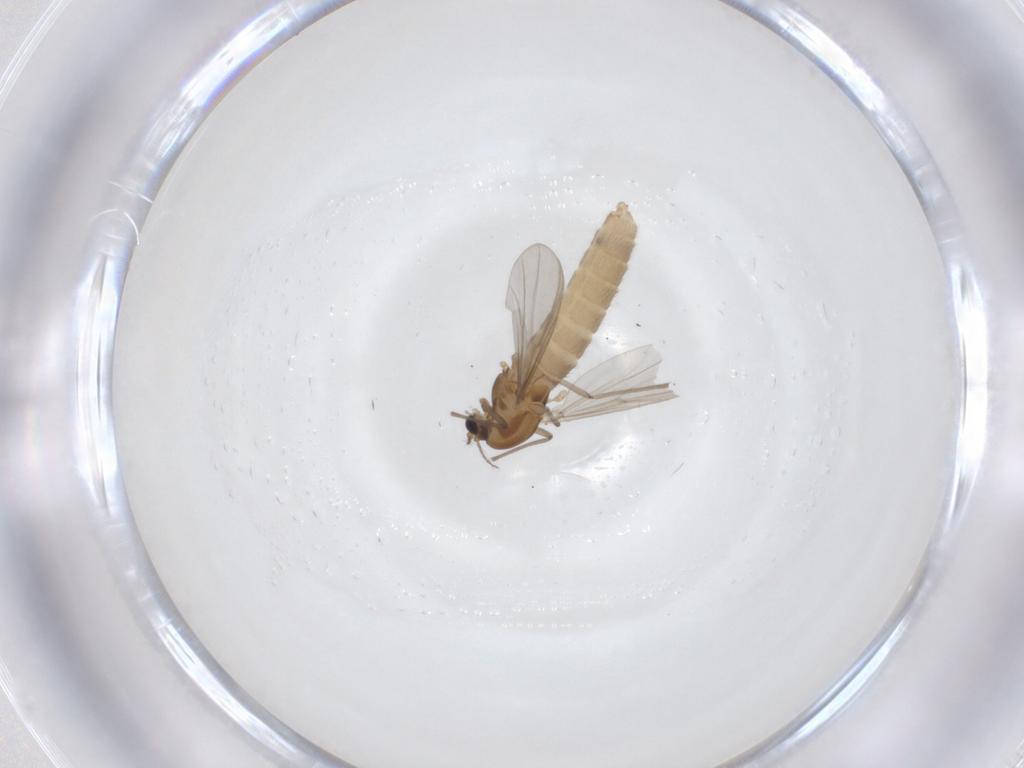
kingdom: Animalia
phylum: Arthropoda
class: Insecta
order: Diptera
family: Chironomidae
